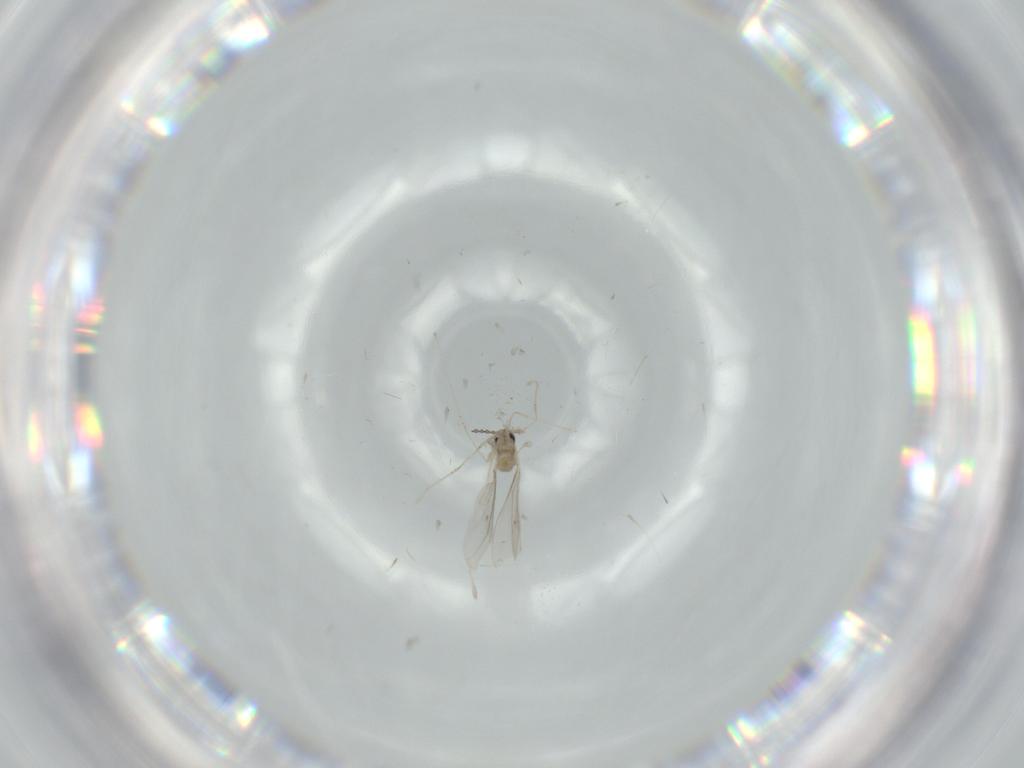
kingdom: Animalia
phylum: Arthropoda
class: Insecta
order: Diptera
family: Cecidomyiidae
